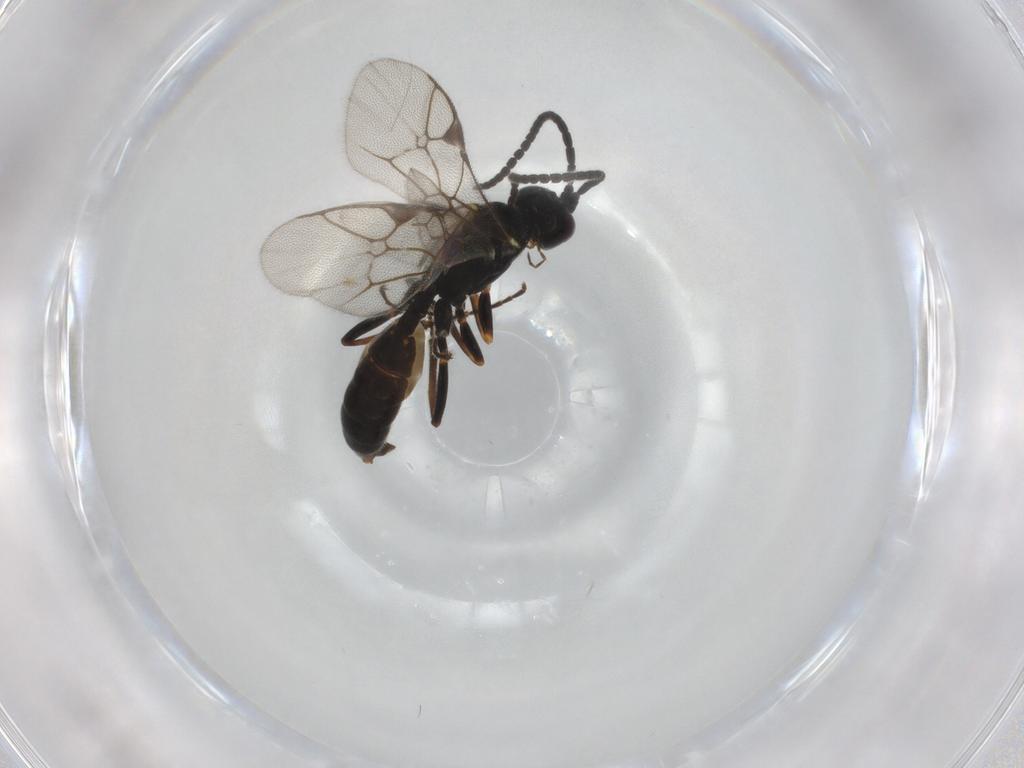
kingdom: Animalia
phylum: Arthropoda
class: Insecta
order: Hymenoptera
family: Ichneumonidae
